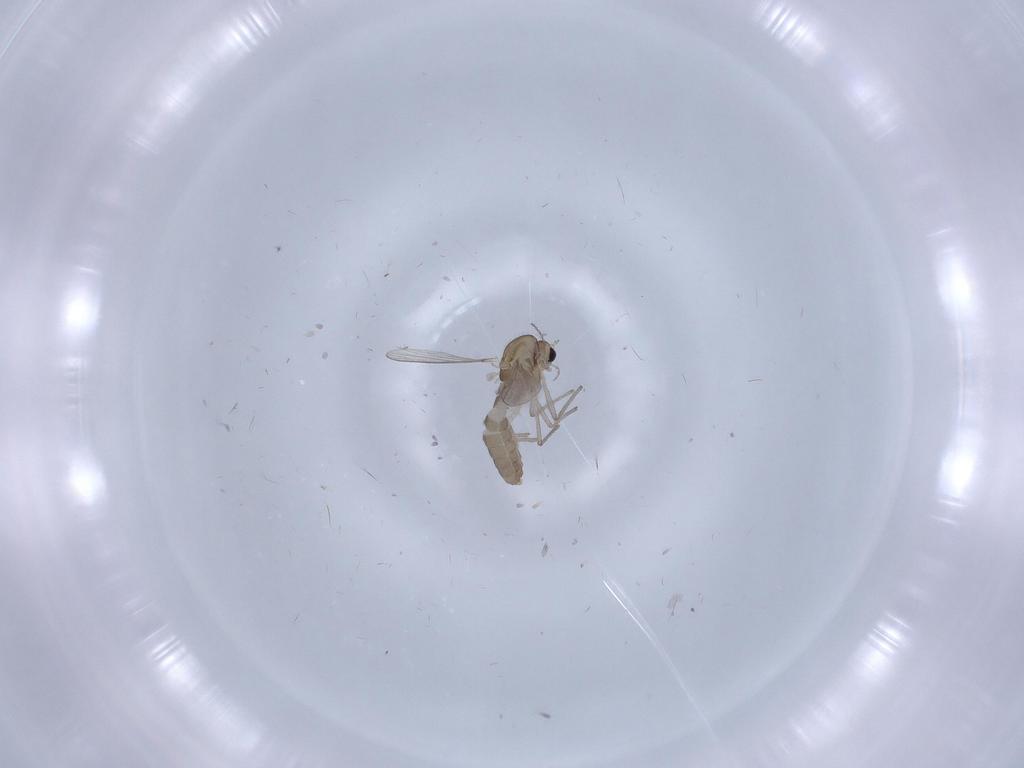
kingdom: Animalia
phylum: Arthropoda
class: Insecta
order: Diptera
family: Chironomidae
